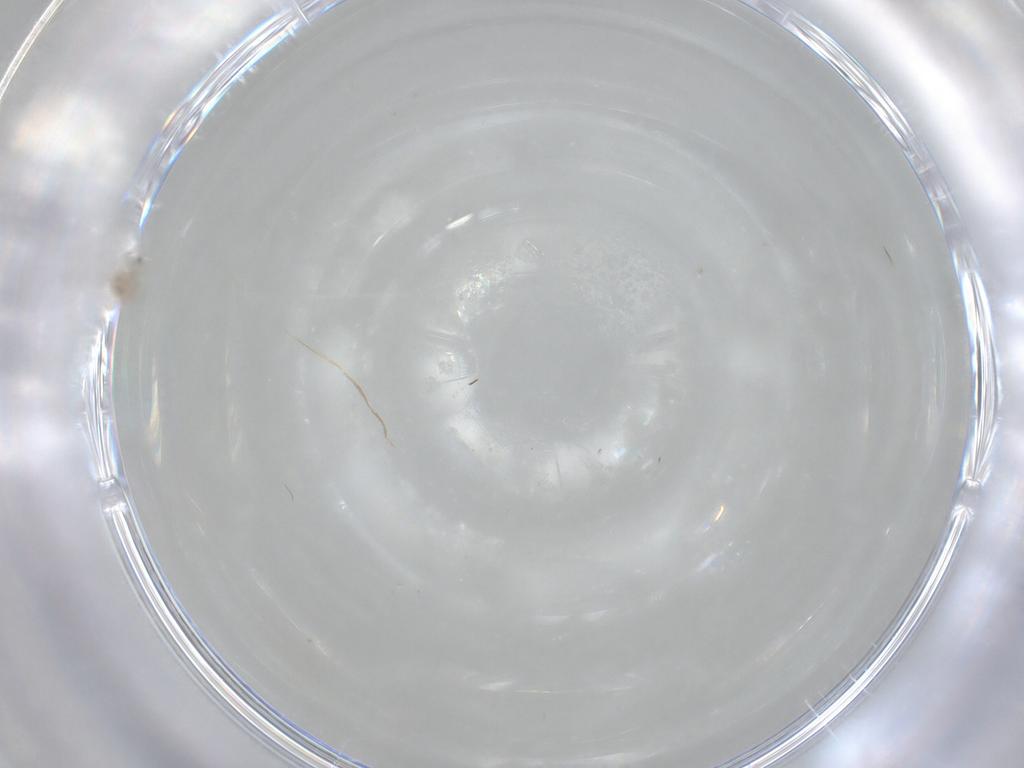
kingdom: Animalia
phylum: Arthropoda
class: Collembola
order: Entomobryomorpha
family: Entomobryidae
